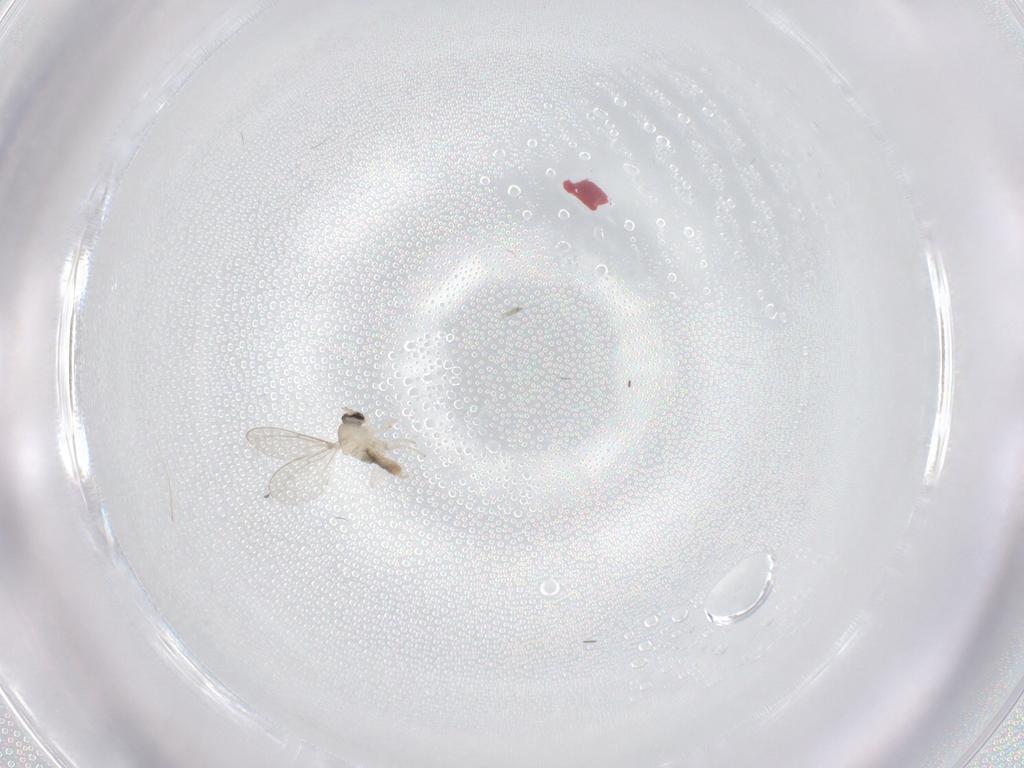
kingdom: Animalia
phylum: Arthropoda
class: Insecta
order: Diptera
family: Cecidomyiidae
